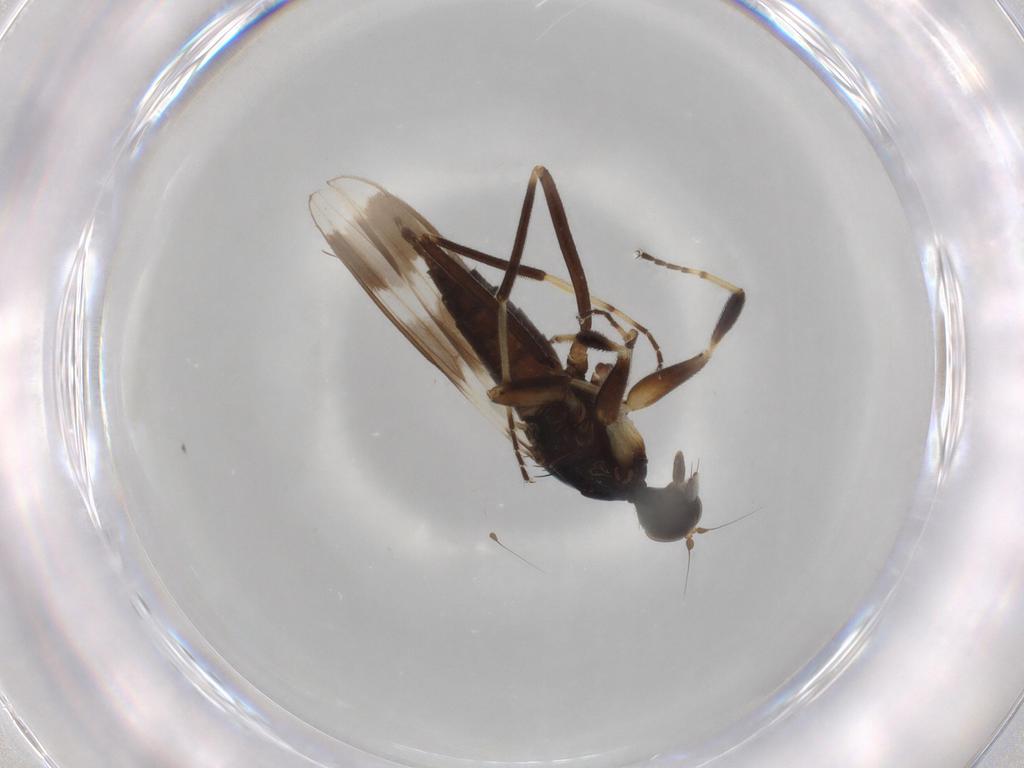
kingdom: Animalia
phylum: Arthropoda
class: Insecta
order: Diptera
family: Hybotidae
